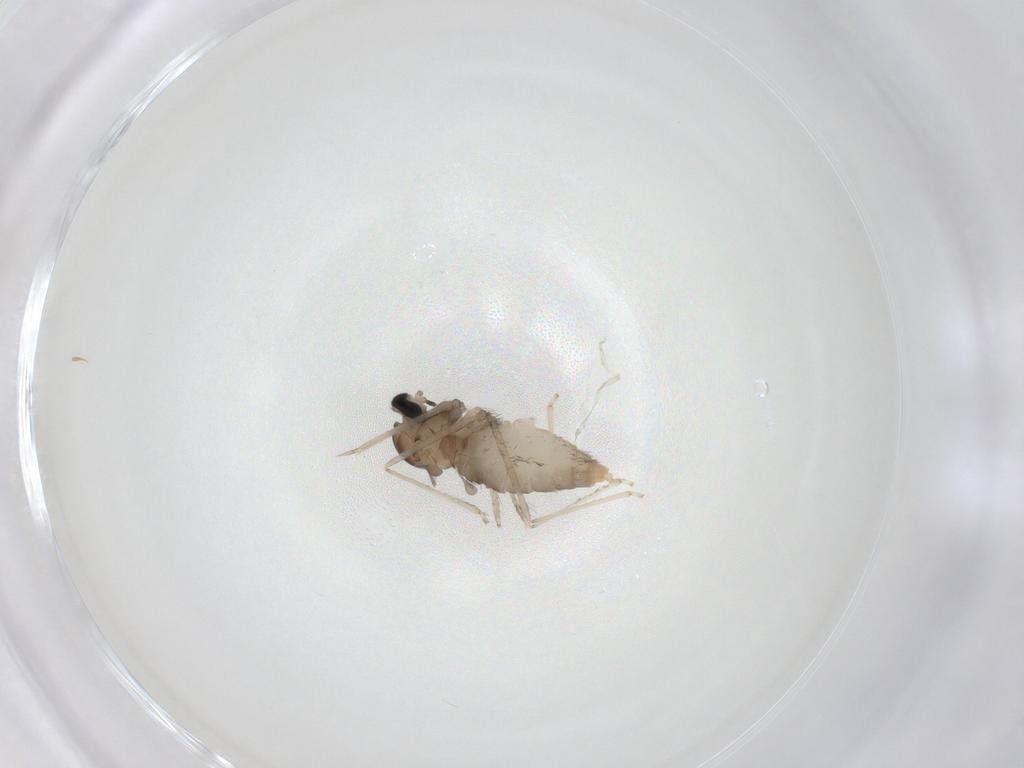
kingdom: Animalia
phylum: Arthropoda
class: Insecta
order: Diptera
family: Cecidomyiidae
